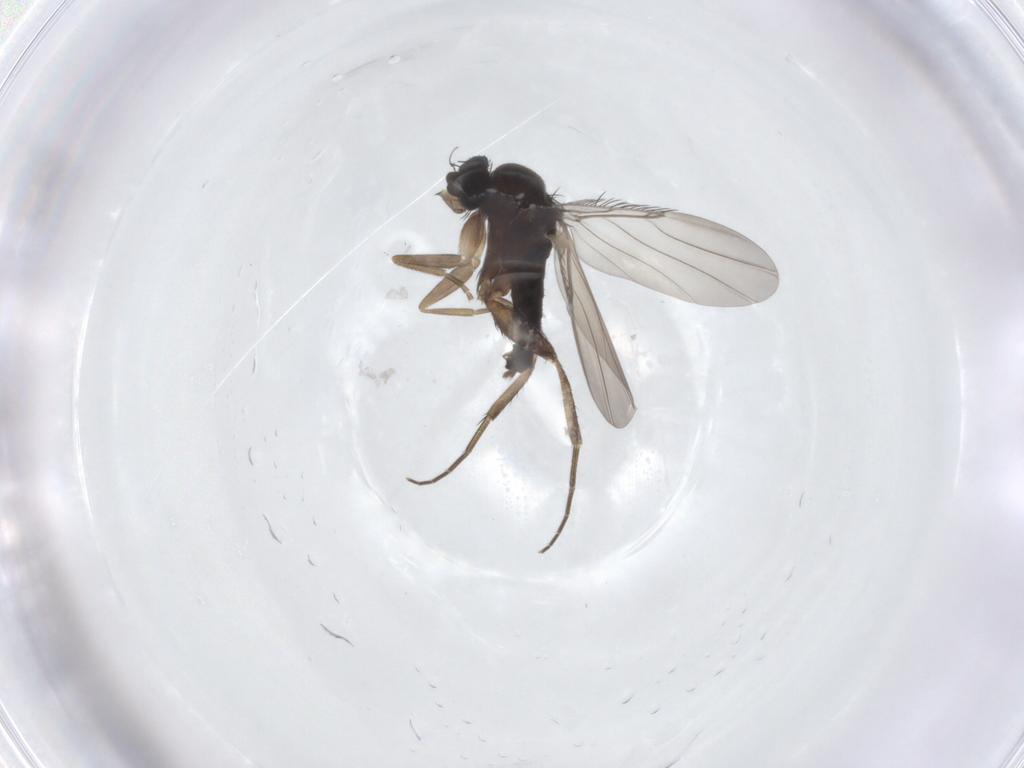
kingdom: Animalia
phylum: Arthropoda
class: Insecta
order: Diptera
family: Phoridae
